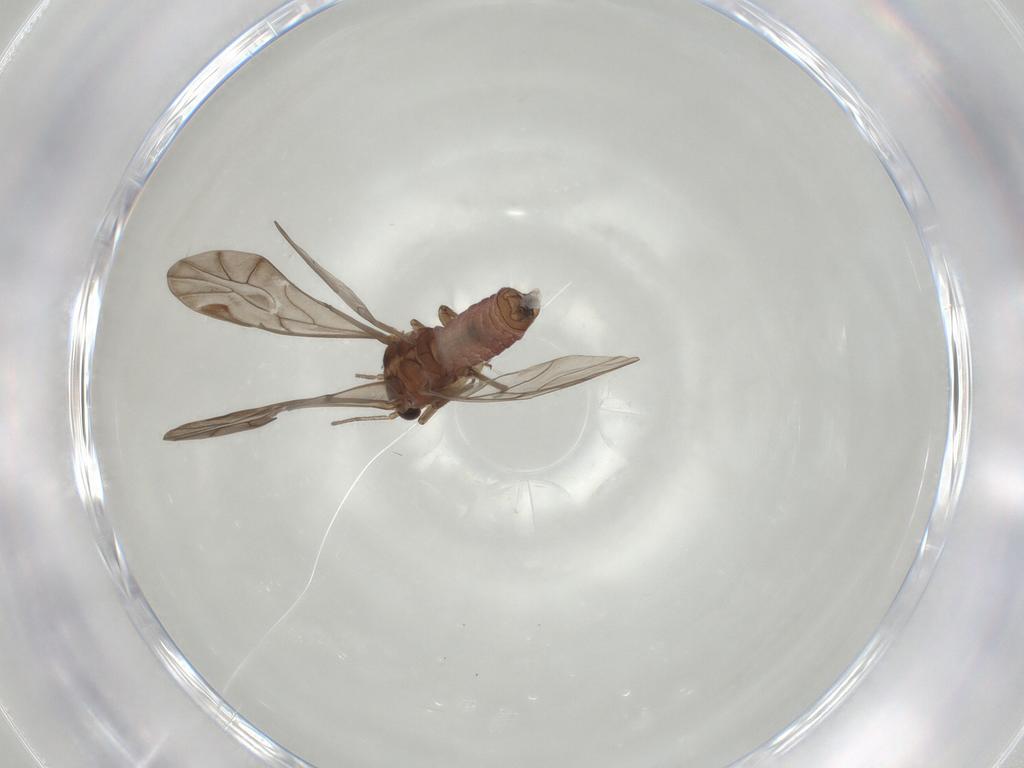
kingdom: Animalia
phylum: Arthropoda
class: Insecta
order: Psocodea
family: Peripsocidae
